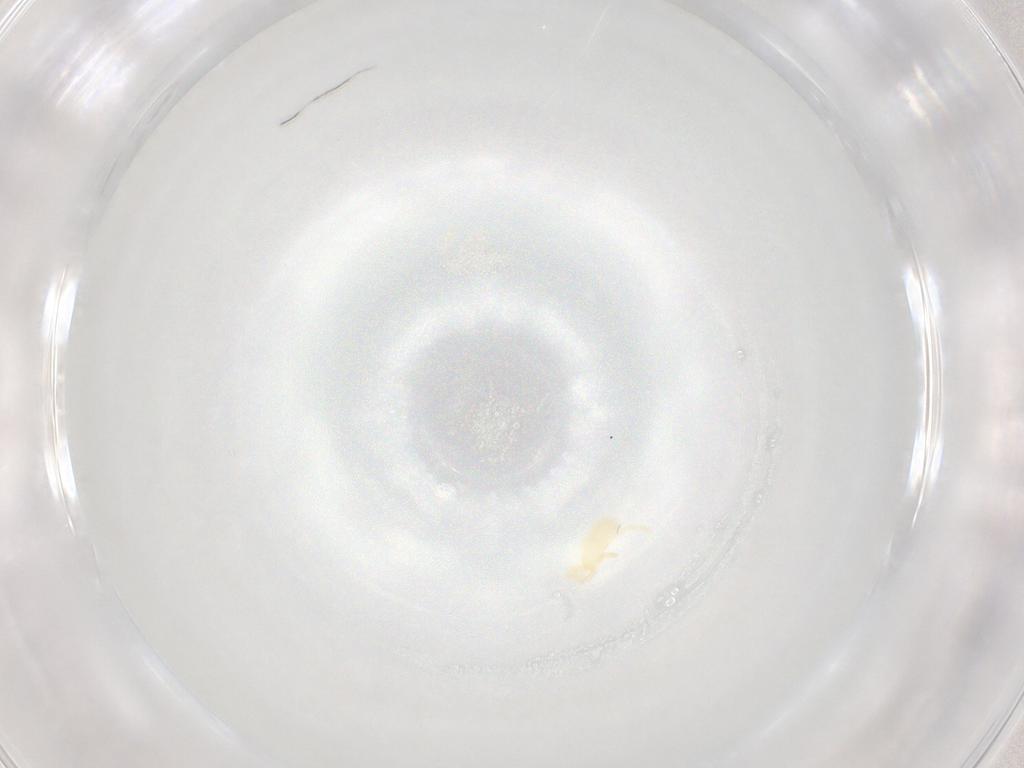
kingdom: Animalia
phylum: Arthropoda
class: Arachnida
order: Trombidiformes
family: Trombidiidae
